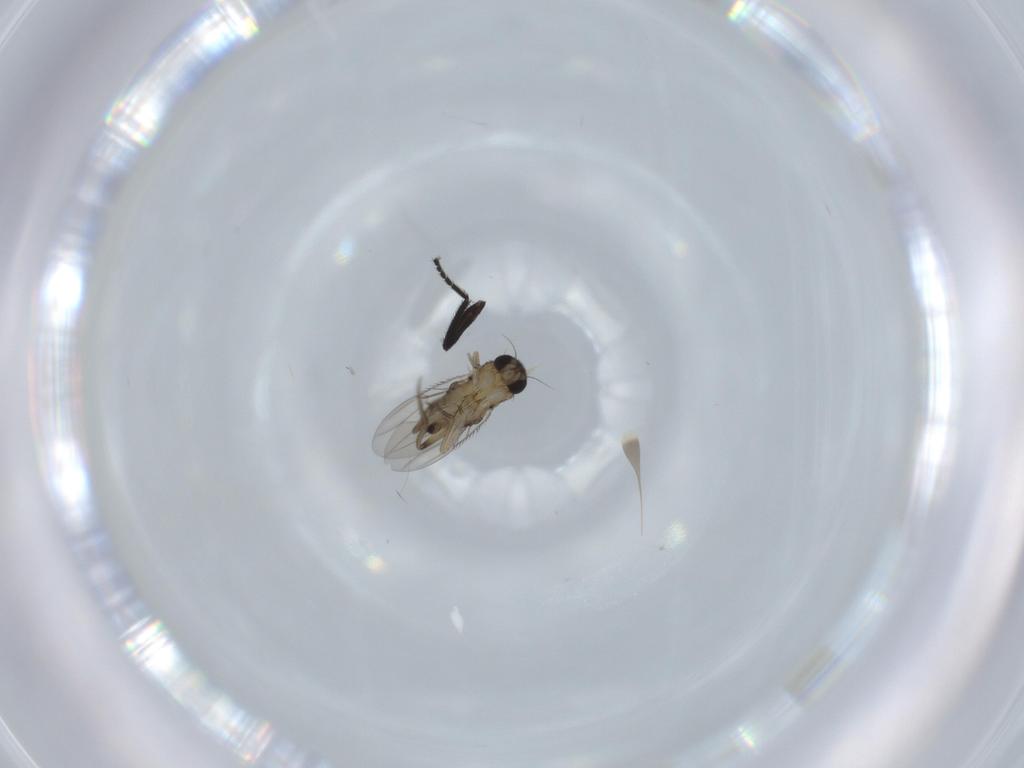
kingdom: Animalia
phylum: Arthropoda
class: Insecta
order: Diptera
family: Phoridae
